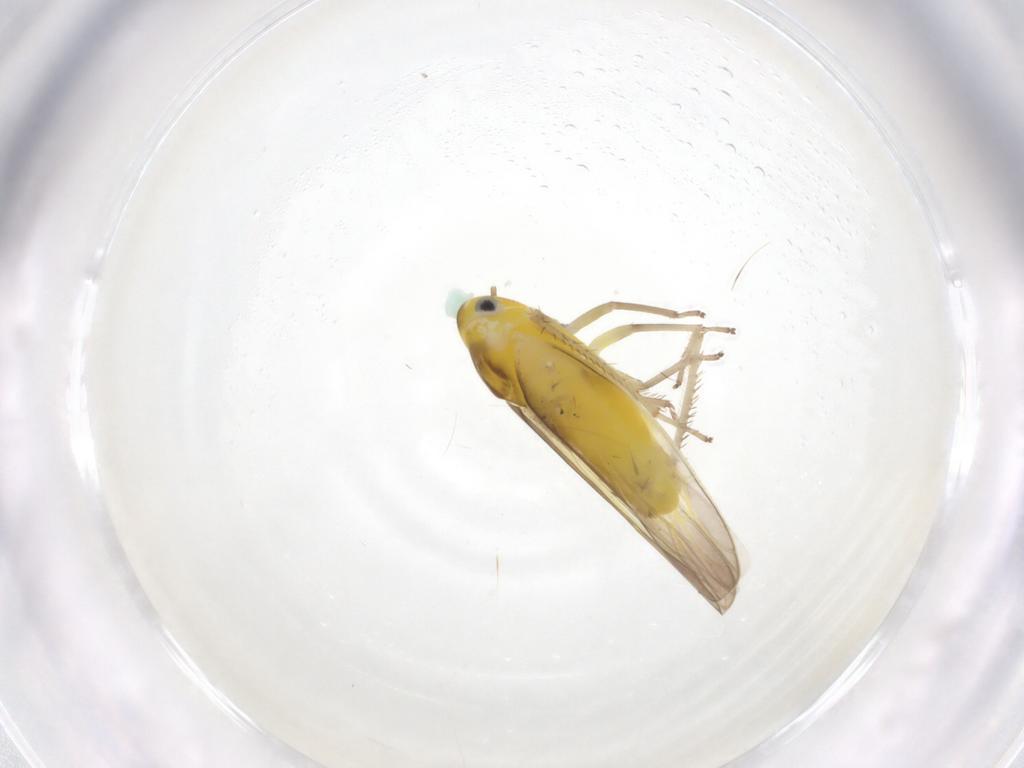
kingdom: Animalia
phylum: Arthropoda
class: Insecta
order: Hemiptera
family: Cicadellidae
